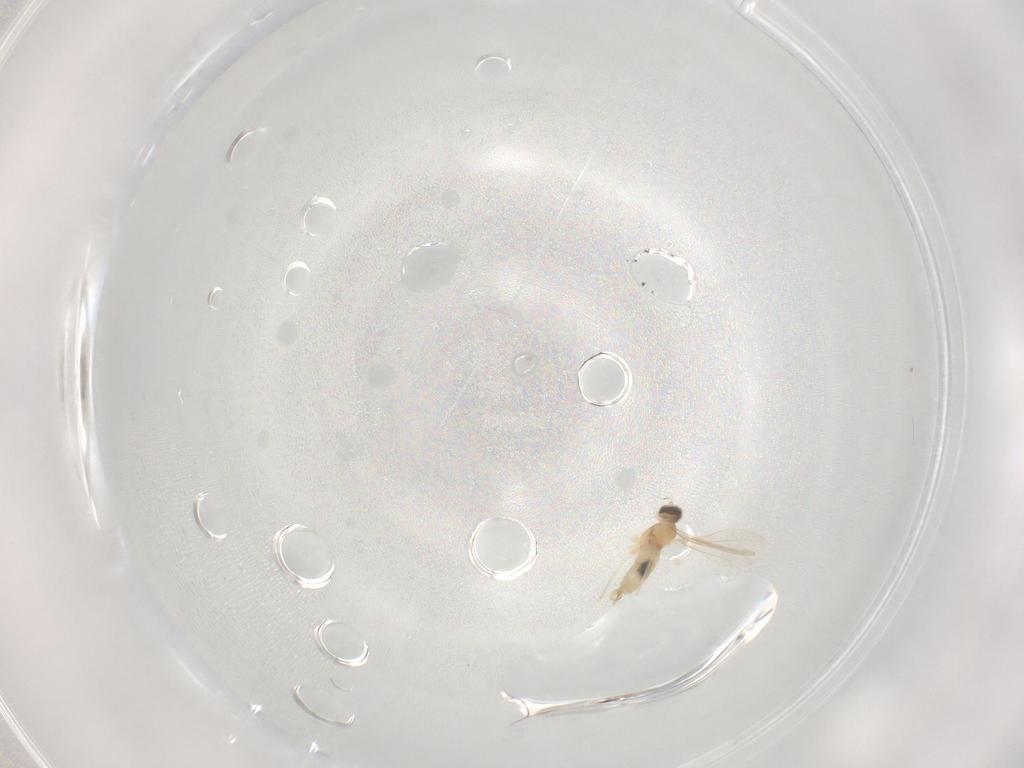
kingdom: Animalia
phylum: Arthropoda
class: Insecta
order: Diptera
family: Cecidomyiidae
